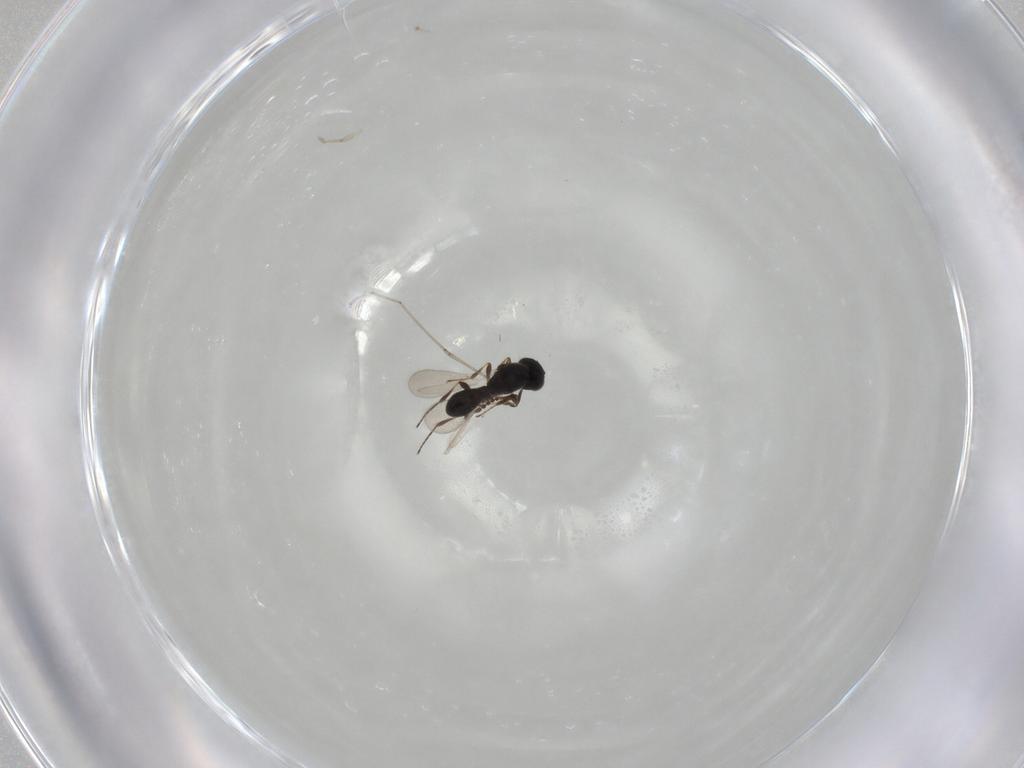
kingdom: Animalia
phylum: Arthropoda
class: Insecta
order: Hymenoptera
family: Platygastridae
